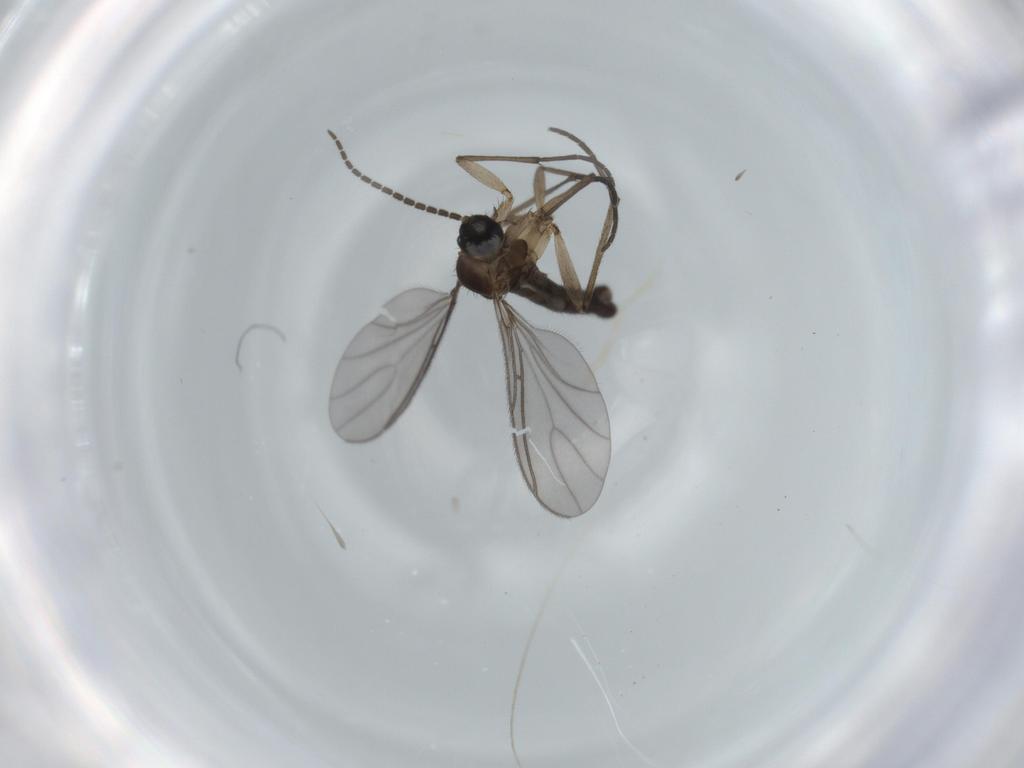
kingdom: Animalia
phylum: Arthropoda
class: Insecta
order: Diptera
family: Sciaridae
